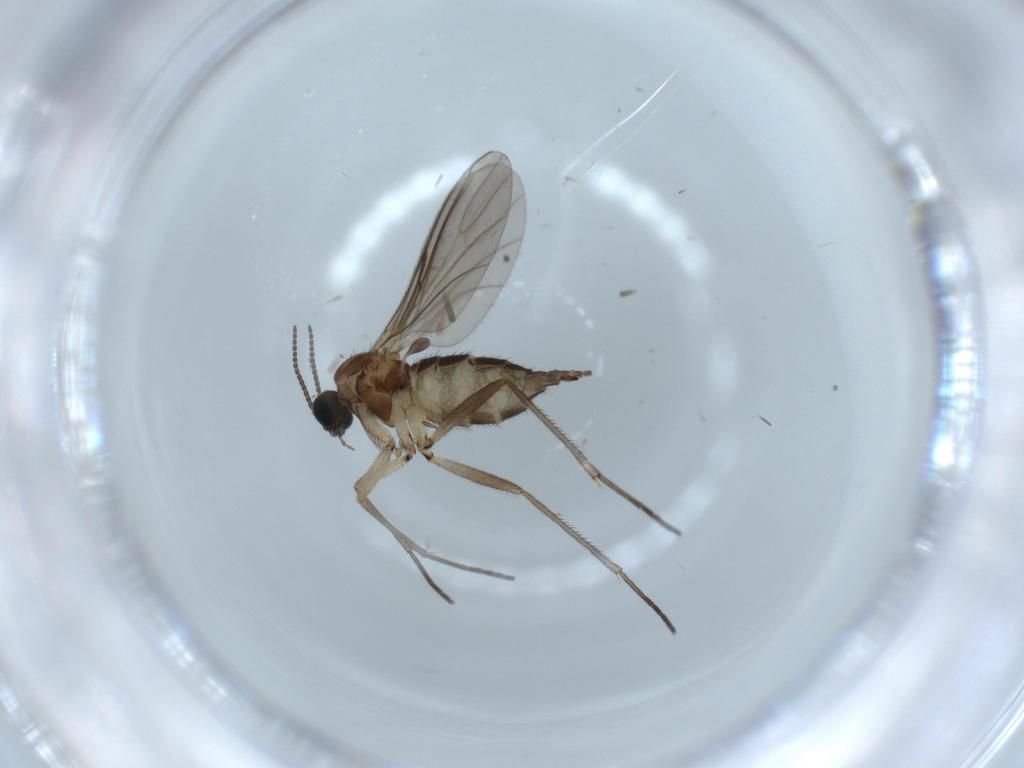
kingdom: Animalia
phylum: Arthropoda
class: Insecta
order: Diptera
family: Sciaridae
